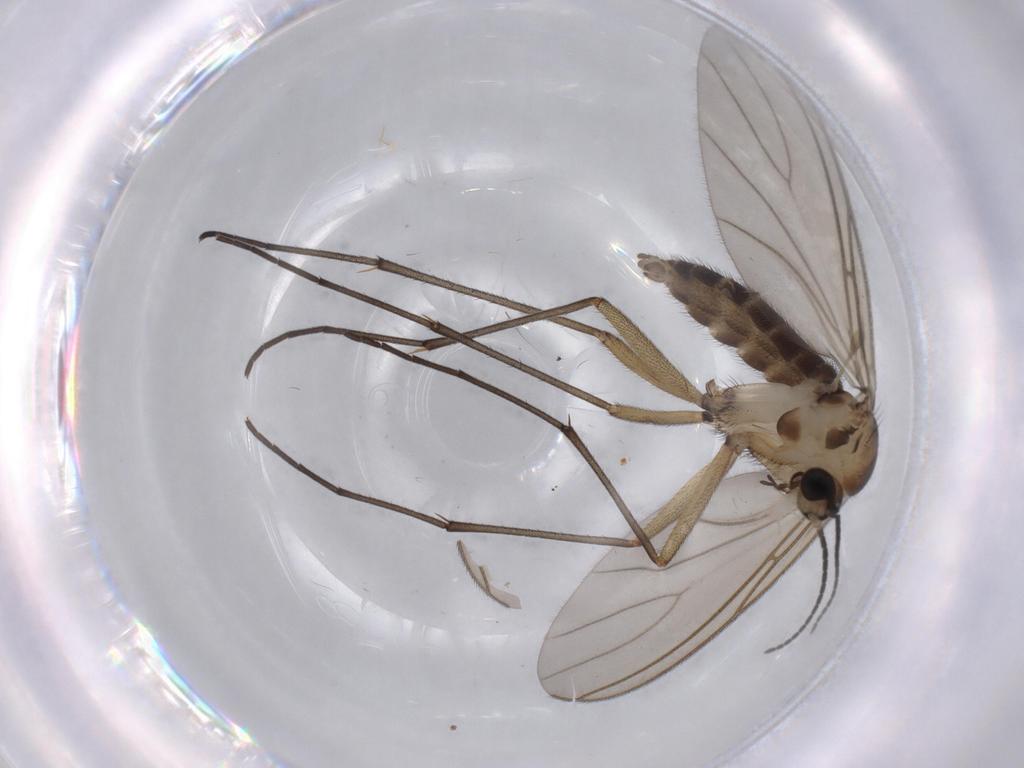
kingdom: Animalia
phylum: Arthropoda
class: Insecta
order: Diptera
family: Sciaridae
